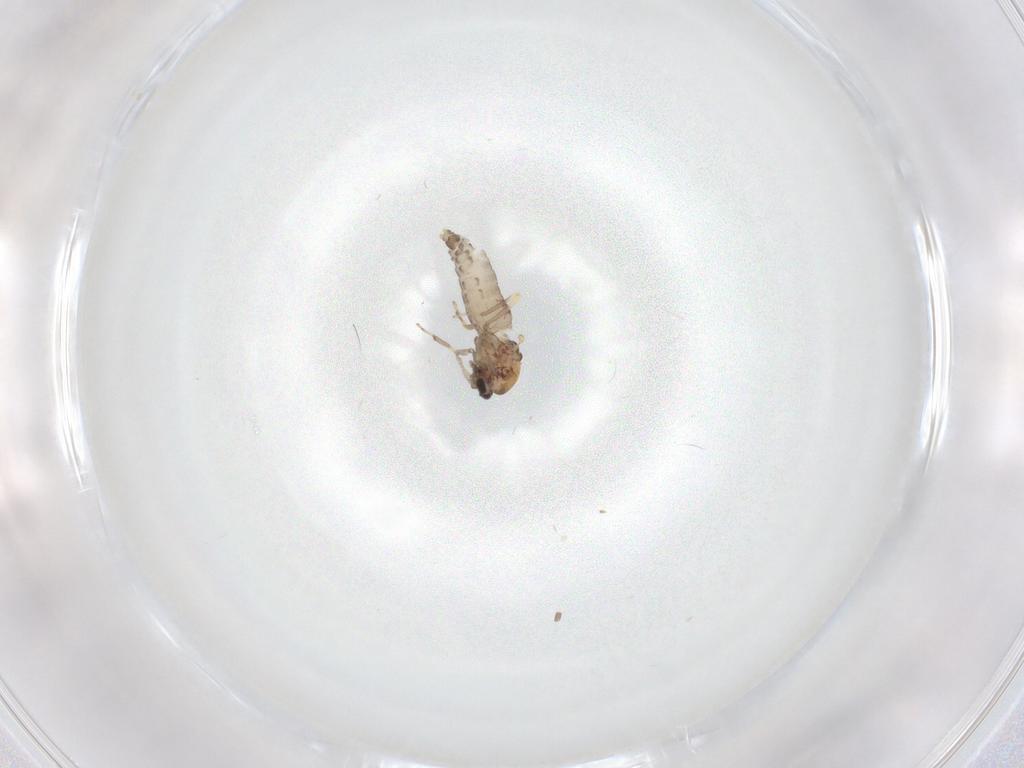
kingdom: Animalia
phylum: Arthropoda
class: Insecta
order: Diptera
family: Ceratopogonidae
